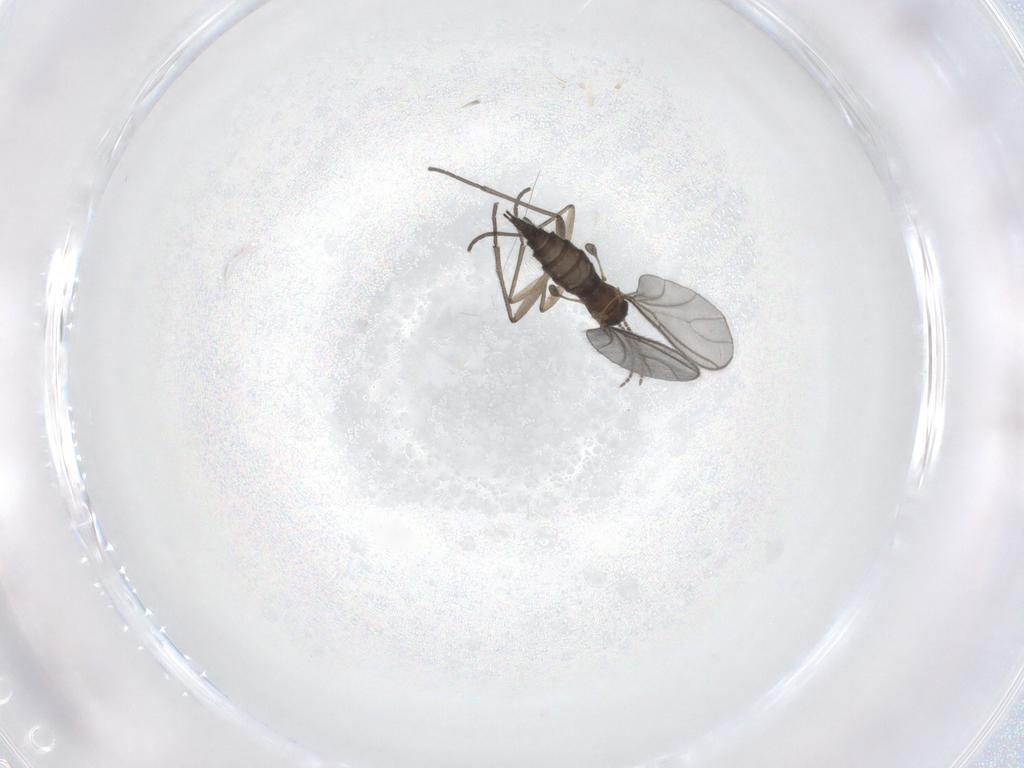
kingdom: Animalia
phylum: Arthropoda
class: Insecta
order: Diptera
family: Sciaridae
